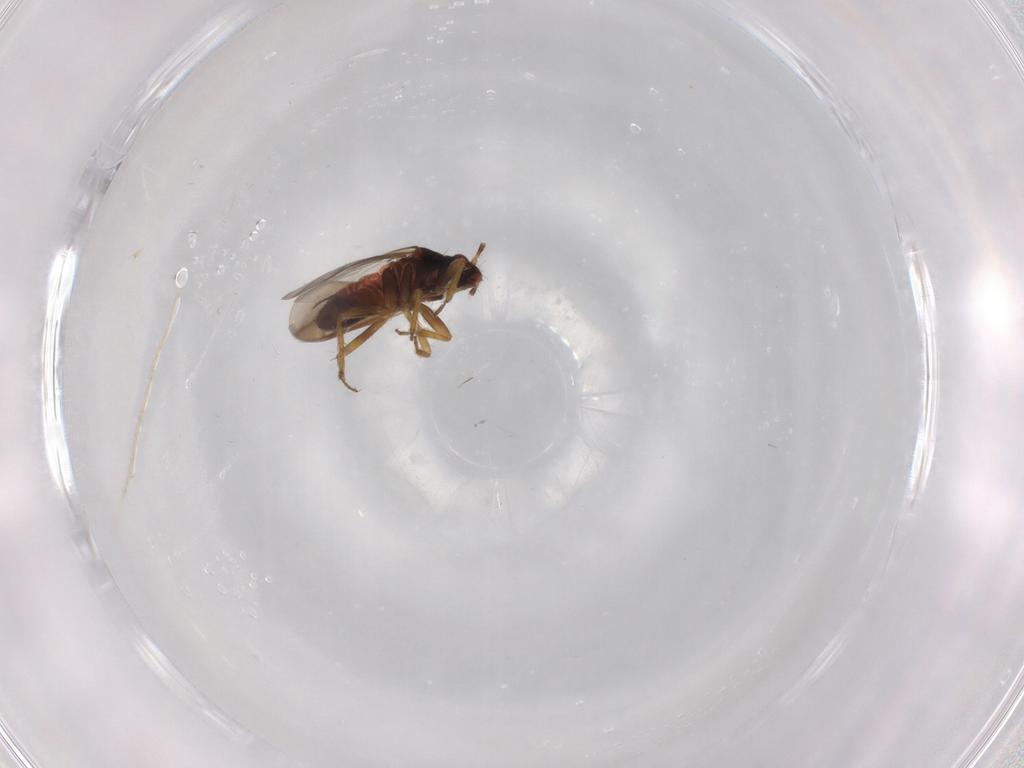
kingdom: Animalia
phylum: Arthropoda
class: Insecta
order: Hemiptera
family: Ceratocombidae
